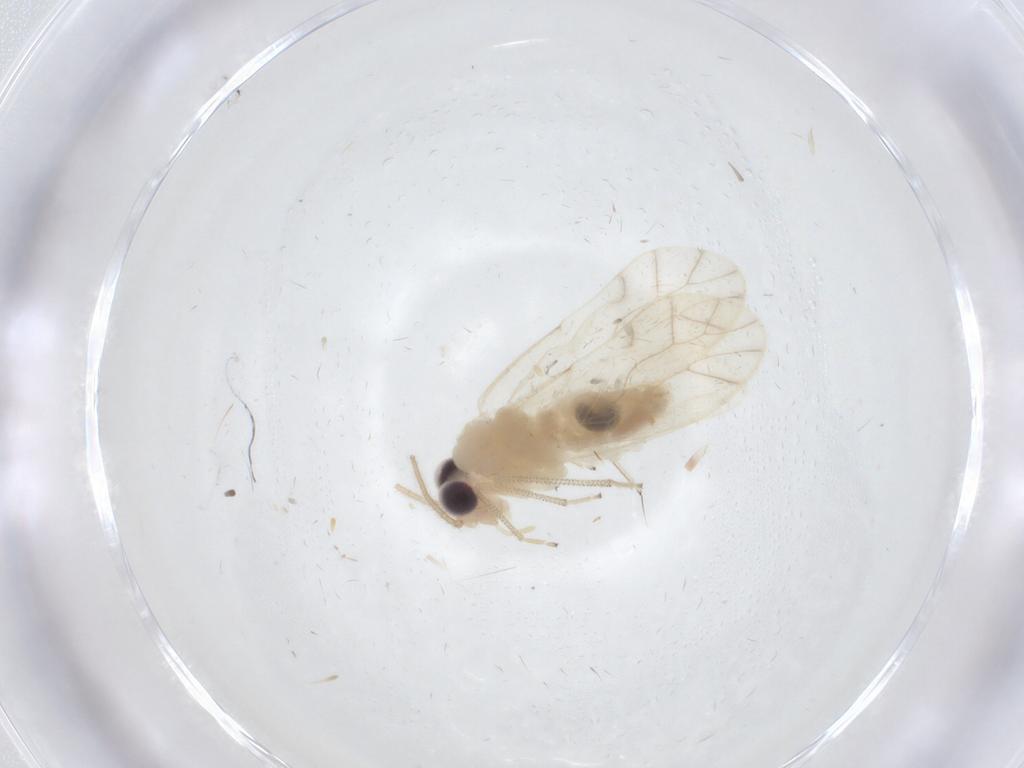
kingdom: Animalia
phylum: Arthropoda
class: Insecta
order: Psocodea
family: Caeciliusidae
